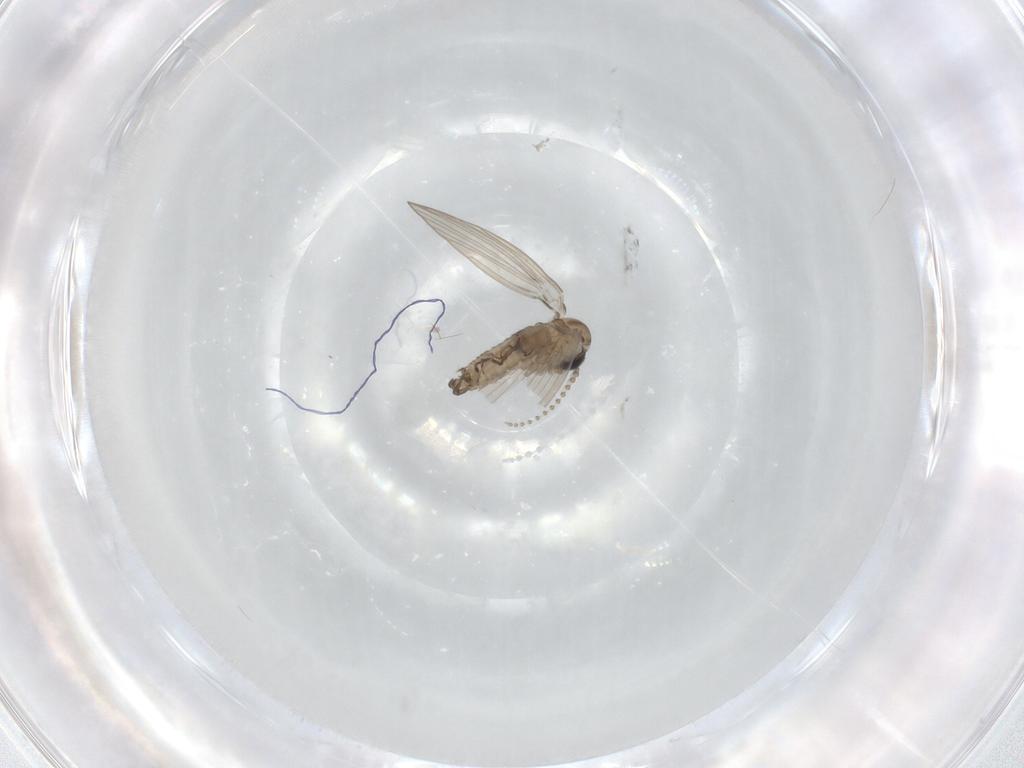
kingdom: Animalia
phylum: Arthropoda
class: Insecta
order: Diptera
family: Psychodidae
